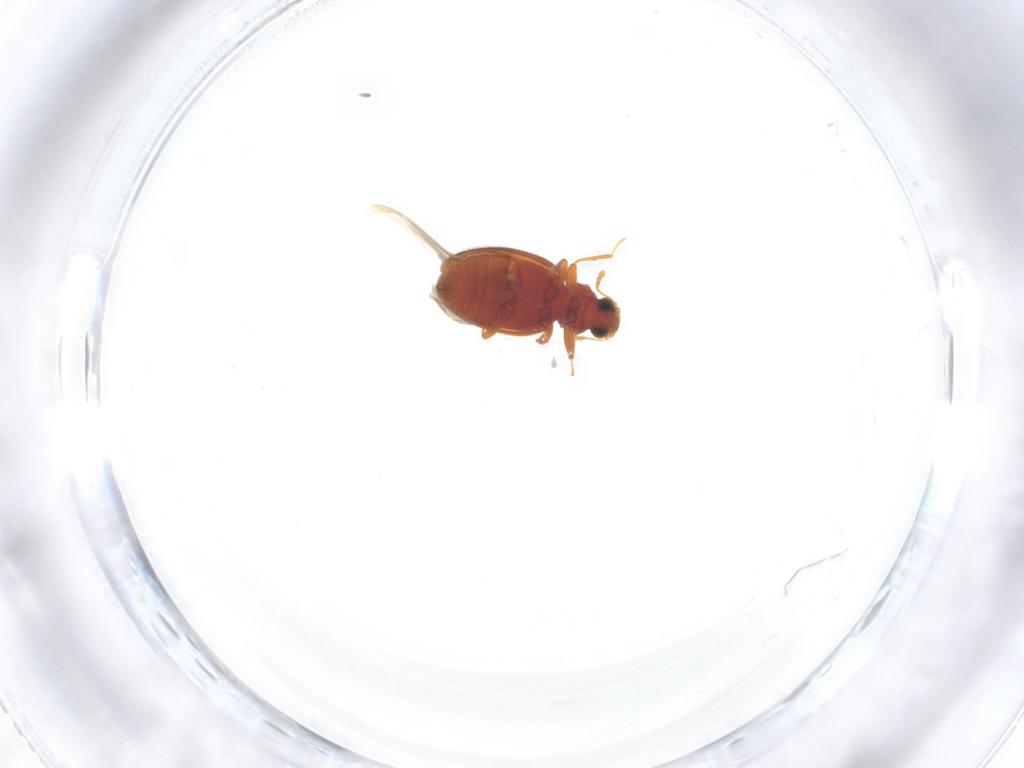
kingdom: Animalia
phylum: Arthropoda
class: Insecta
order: Coleoptera
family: Latridiidae
